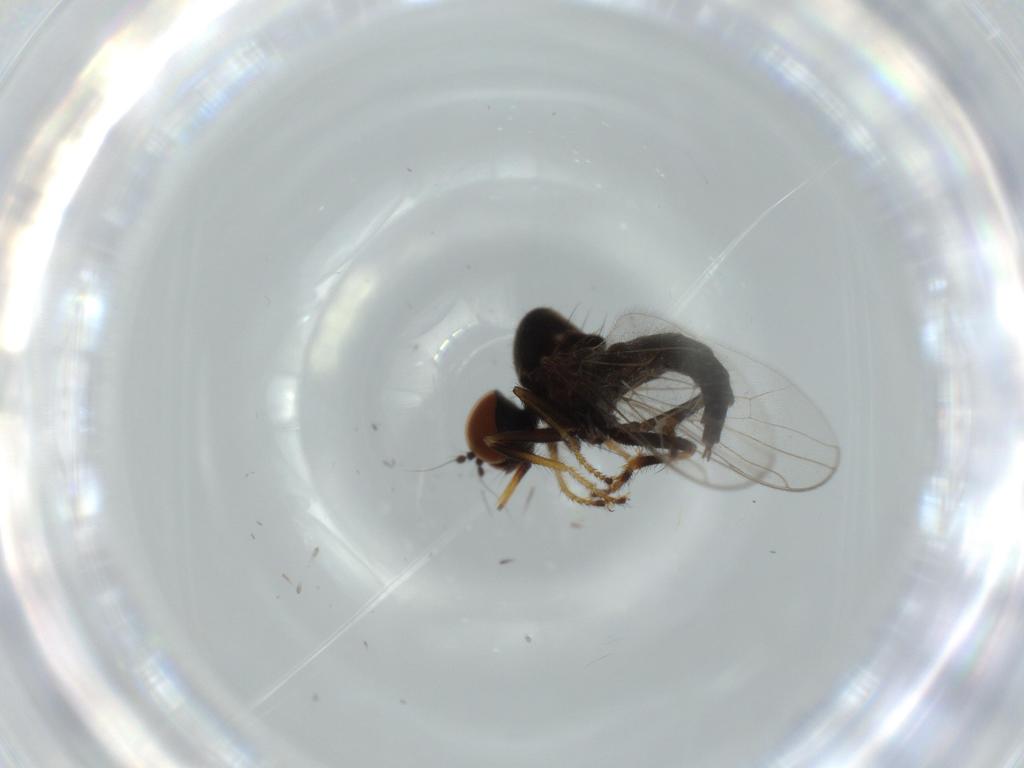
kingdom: Animalia
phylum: Arthropoda
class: Insecta
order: Diptera
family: Hybotidae
